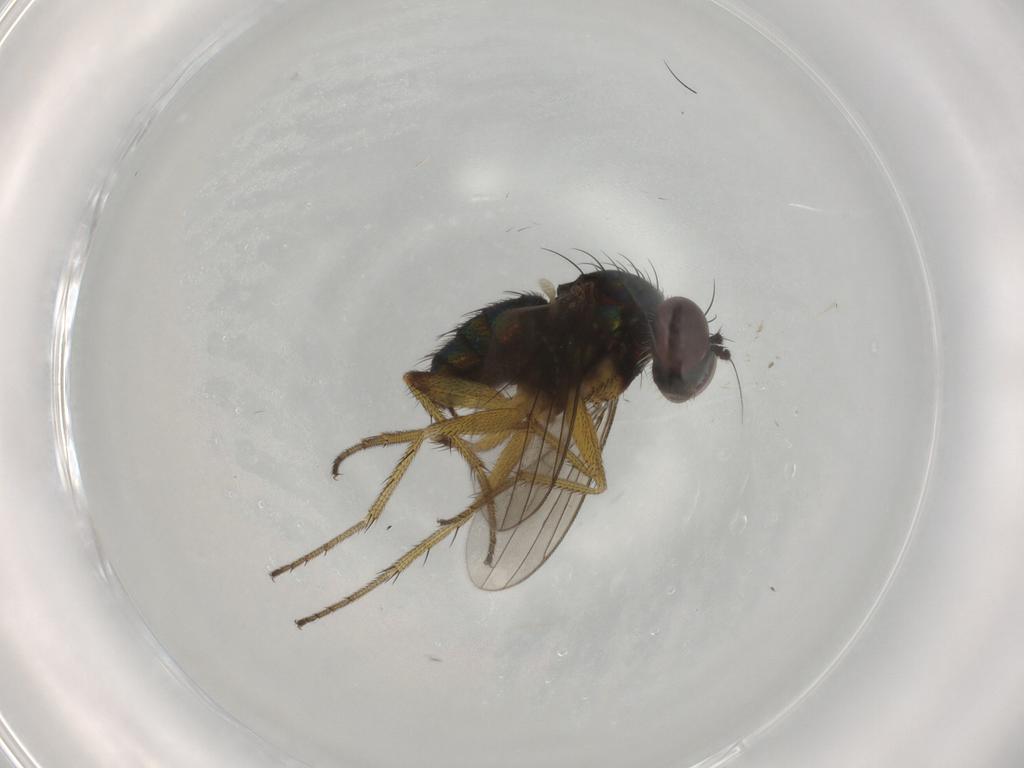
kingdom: Animalia
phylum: Arthropoda
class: Insecta
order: Diptera
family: Dolichopodidae
